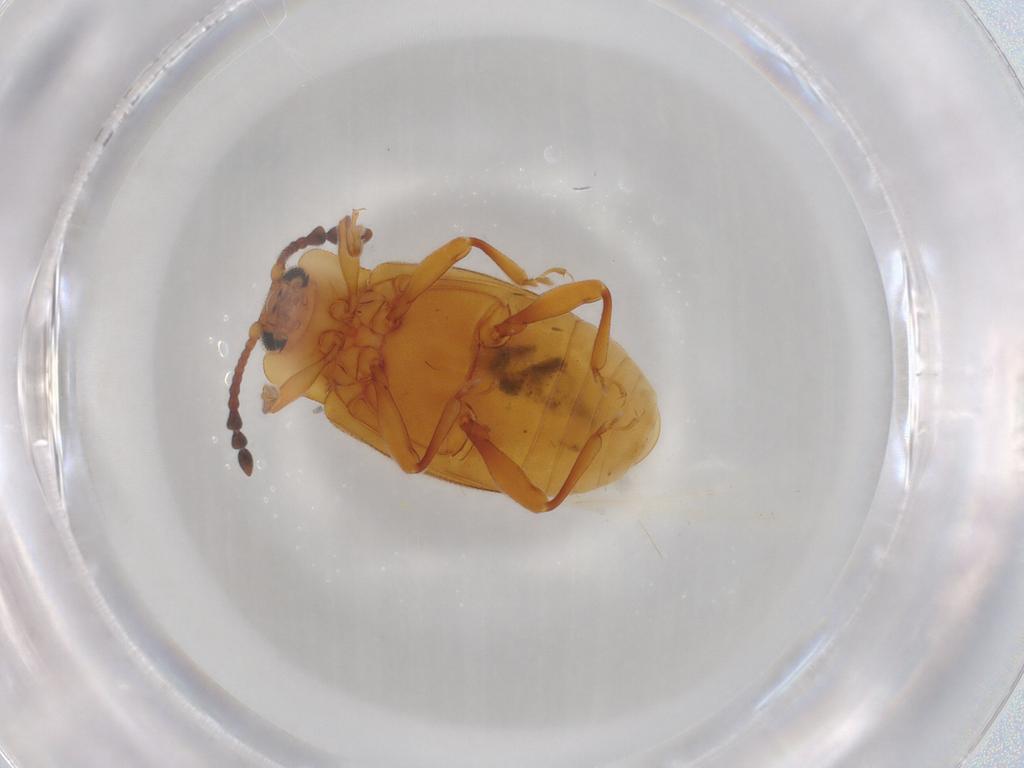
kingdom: Animalia
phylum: Arthropoda
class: Insecta
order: Coleoptera
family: Endomychidae
